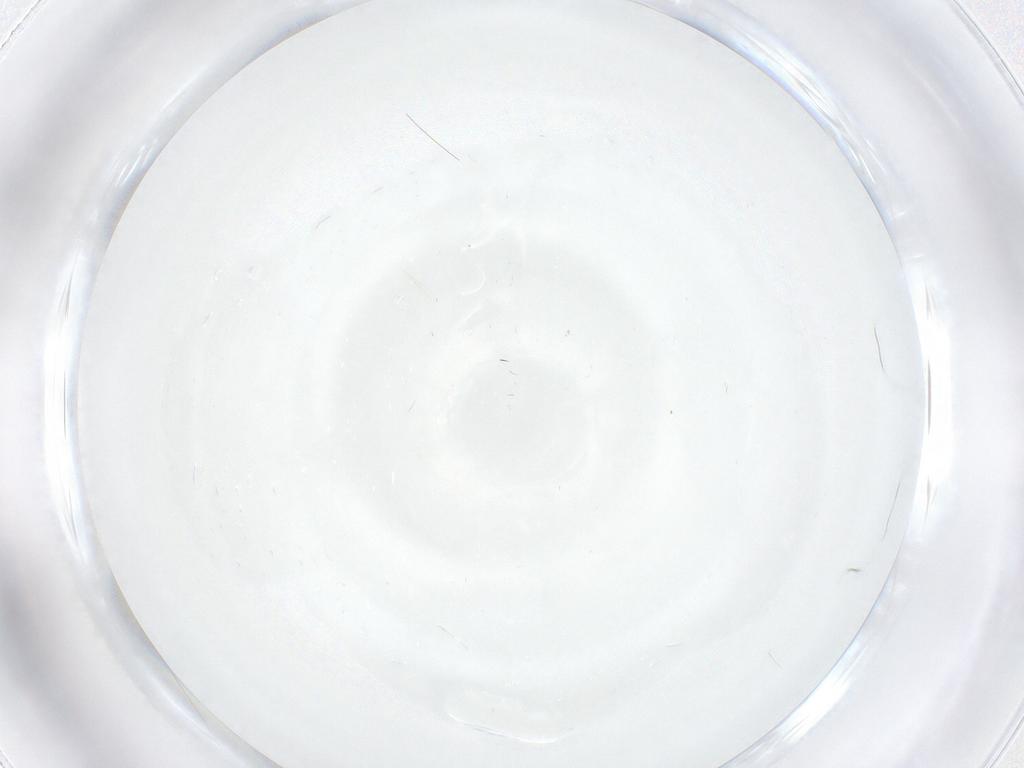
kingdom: Animalia
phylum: Arthropoda
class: Insecta
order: Diptera
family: Cecidomyiidae
